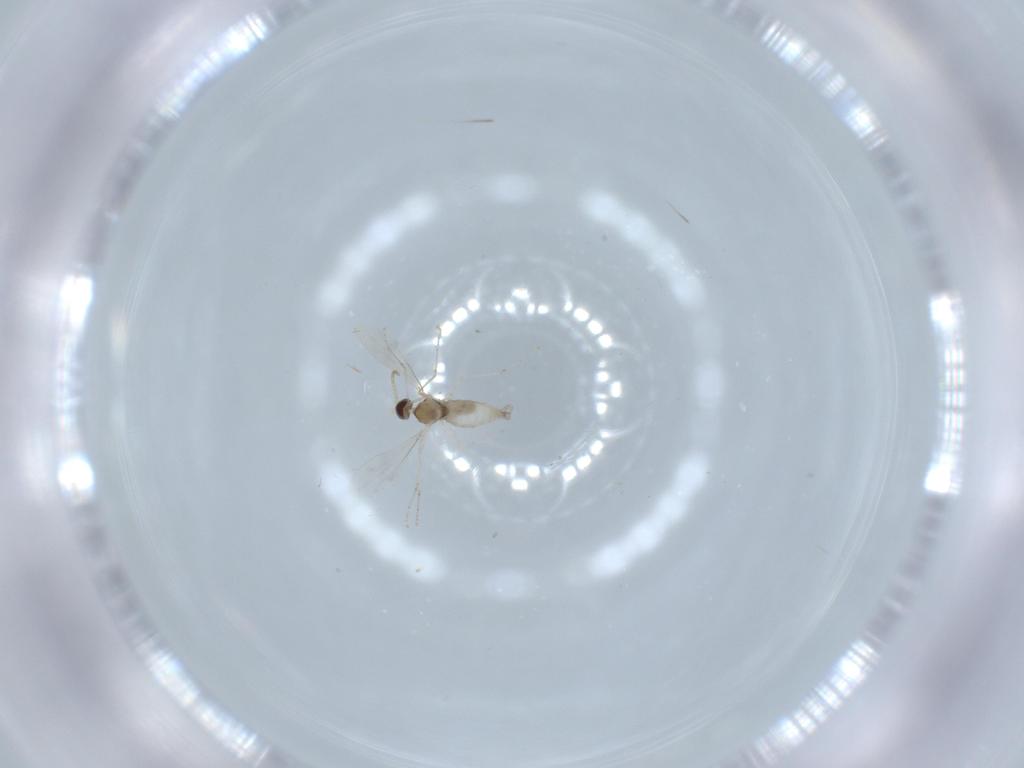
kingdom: Animalia
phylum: Arthropoda
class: Insecta
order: Diptera
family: Cecidomyiidae
